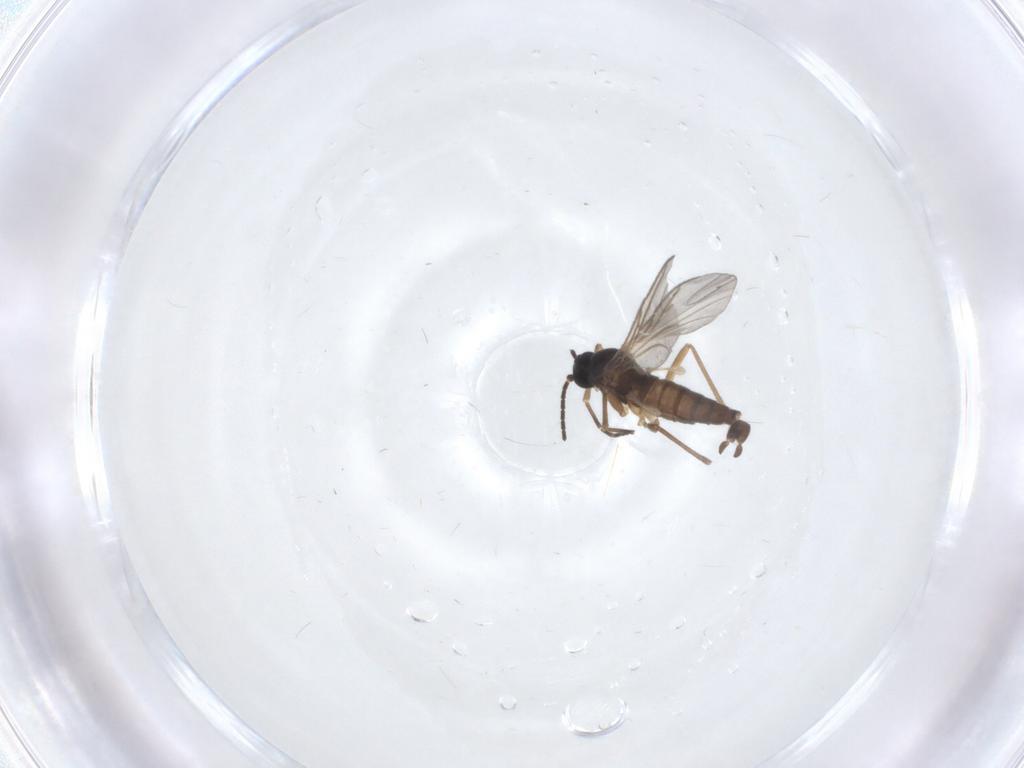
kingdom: Animalia
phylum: Arthropoda
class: Insecta
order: Diptera
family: Sciaridae
